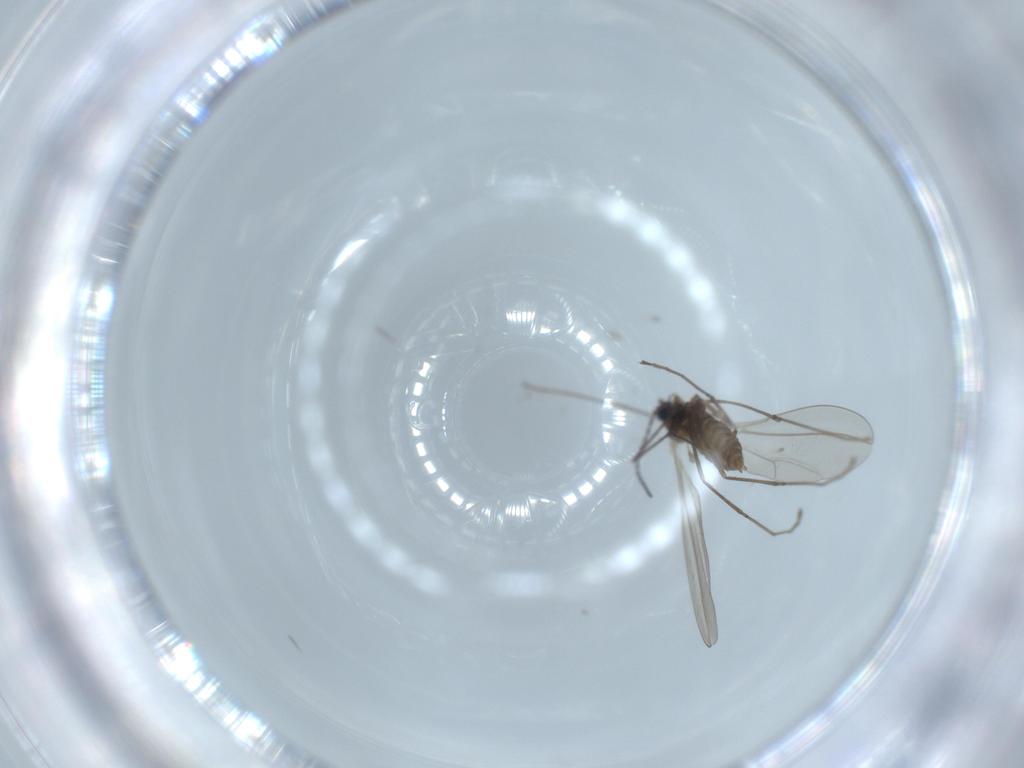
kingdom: Animalia
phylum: Arthropoda
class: Insecta
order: Diptera
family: Cecidomyiidae
